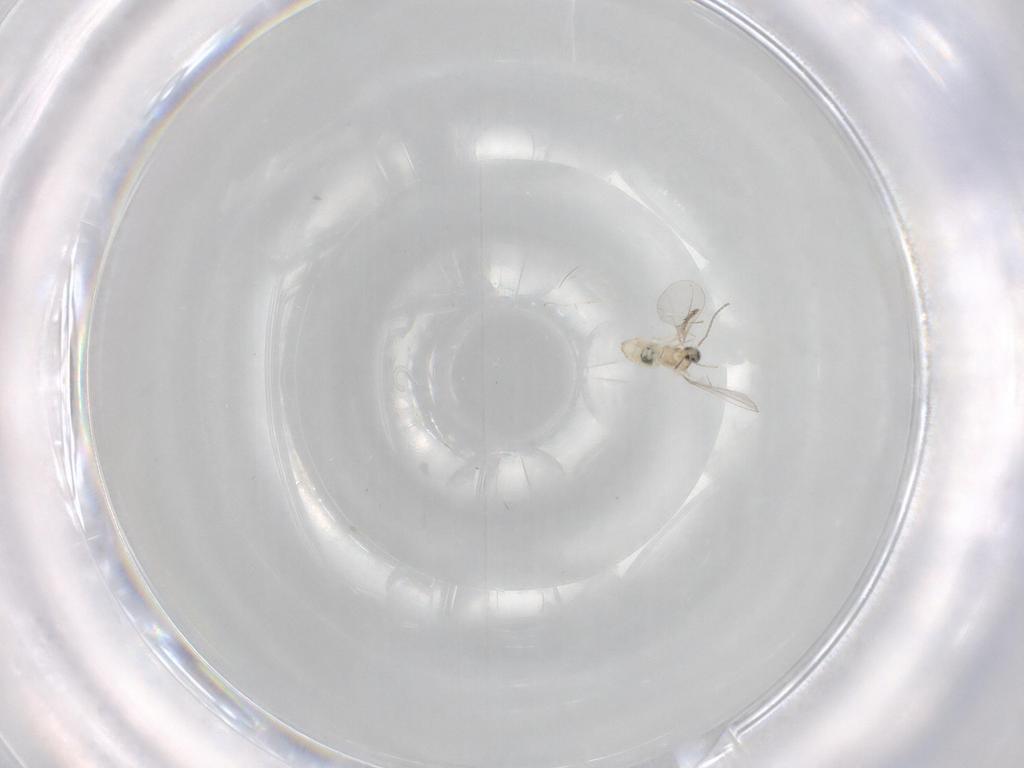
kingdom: Animalia
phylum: Arthropoda
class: Insecta
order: Diptera
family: Cecidomyiidae
